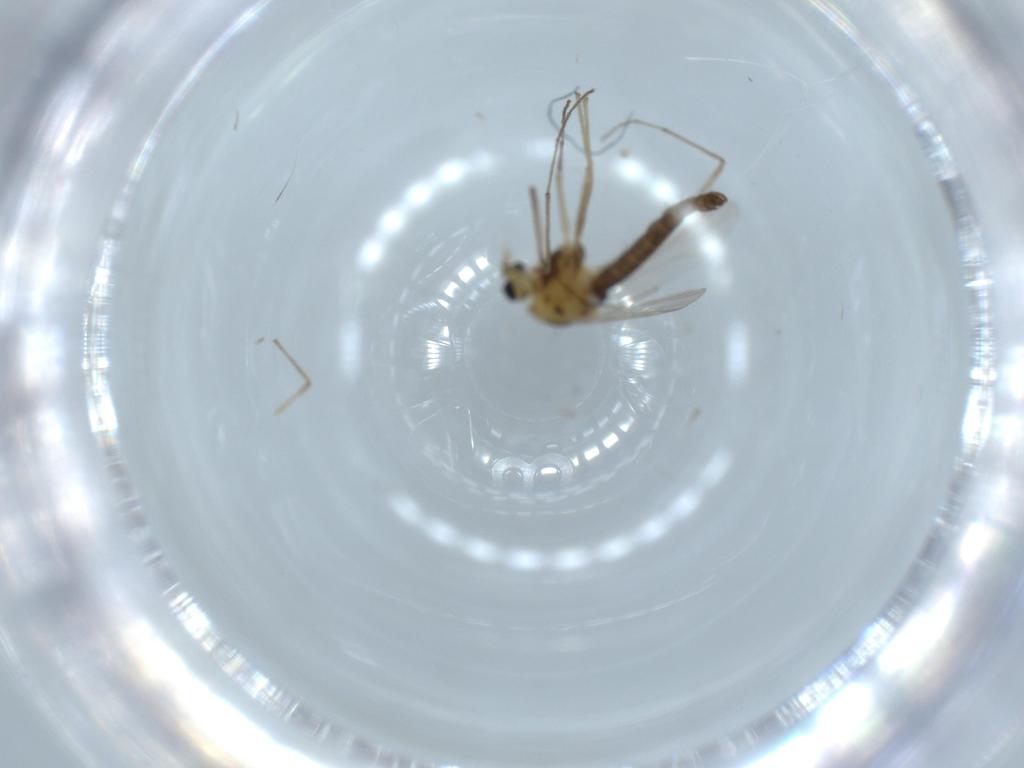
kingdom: Animalia
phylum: Arthropoda
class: Insecta
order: Diptera
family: Chironomidae
